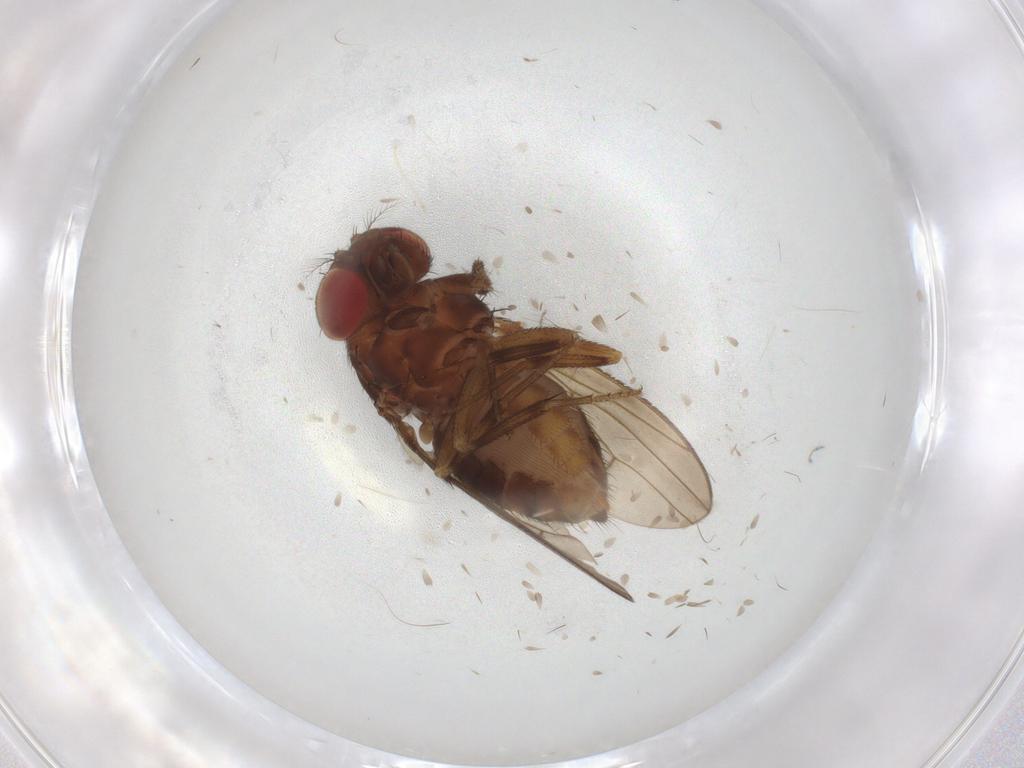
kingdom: Animalia
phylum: Arthropoda
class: Insecta
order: Diptera
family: Drosophilidae
